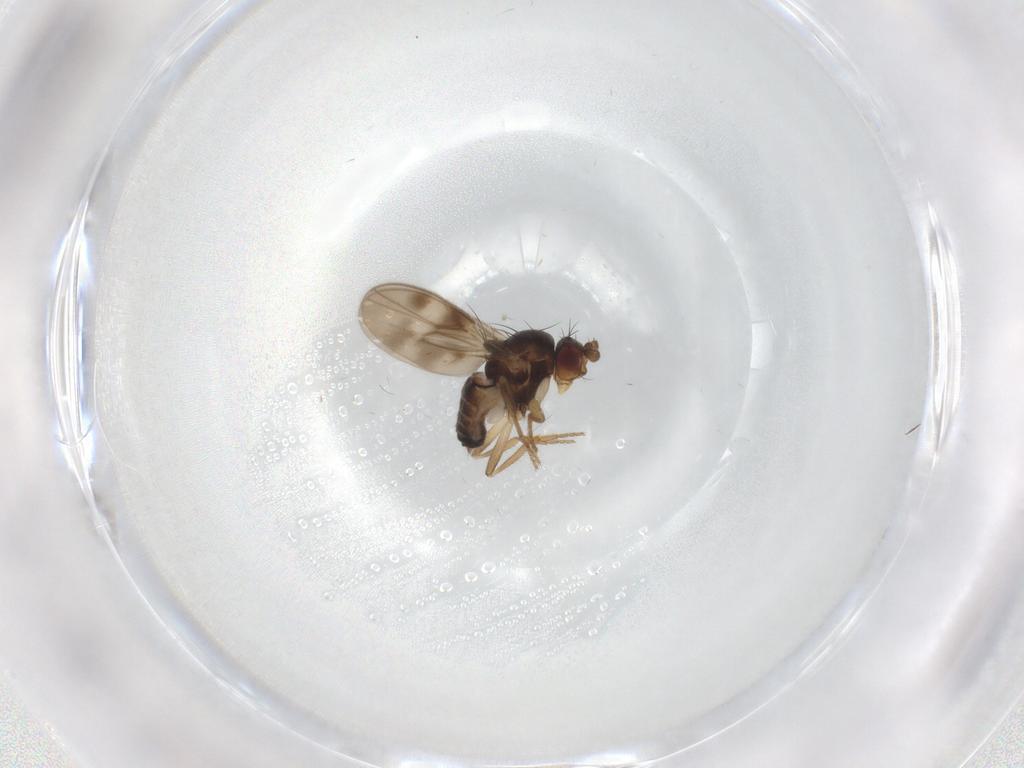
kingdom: Animalia
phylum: Arthropoda
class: Insecta
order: Diptera
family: Sphaeroceridae
